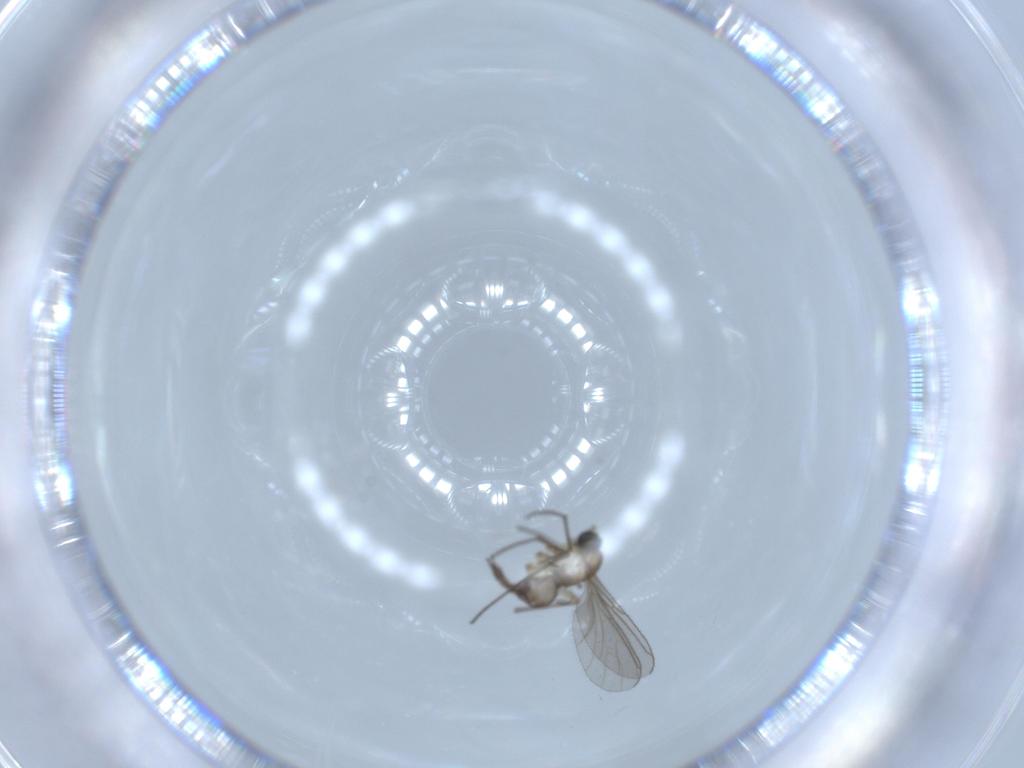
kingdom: Animalia
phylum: Arthropoda
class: Insecta
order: Diptera
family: Sciaridae
